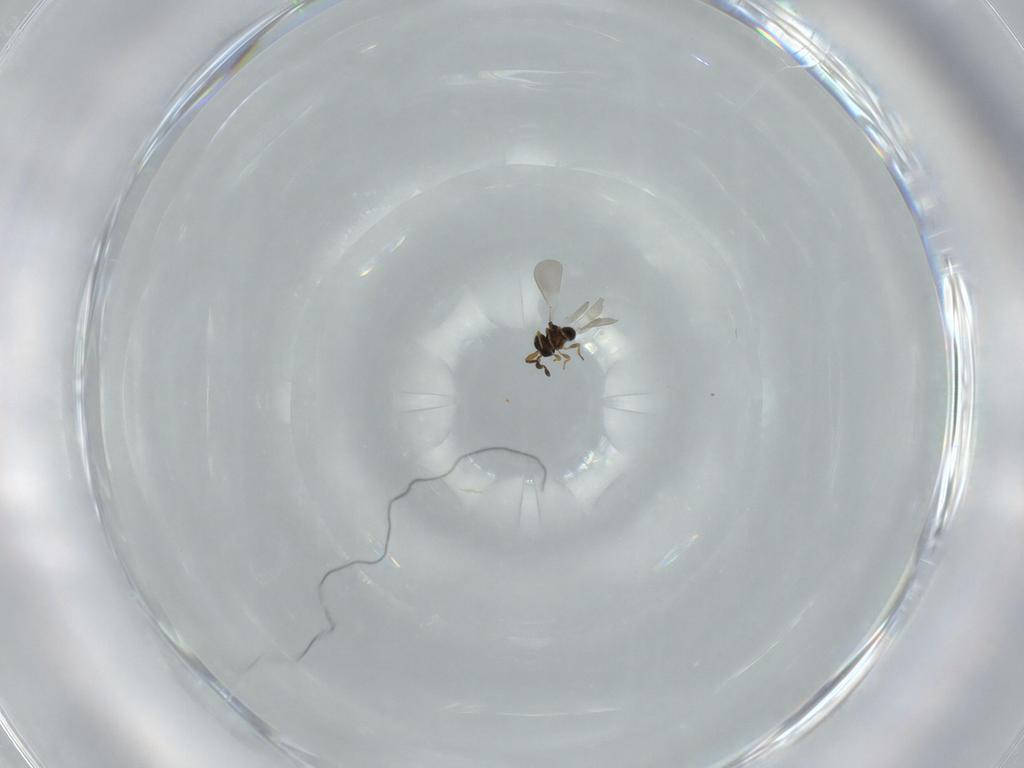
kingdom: Animalia
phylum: Arthropoda
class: Insecta
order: Hymenoptera
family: Platygastridae
